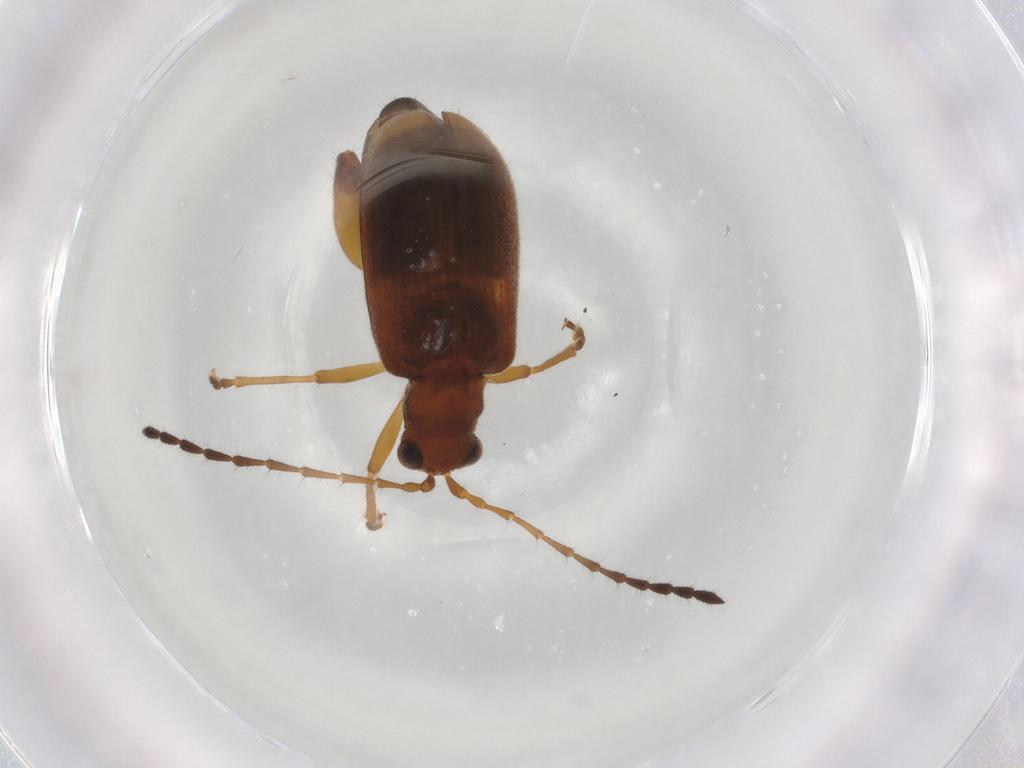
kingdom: Animalia
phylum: Arthropoda
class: Insecta
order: Coleoptera
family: Chrysomelidae
